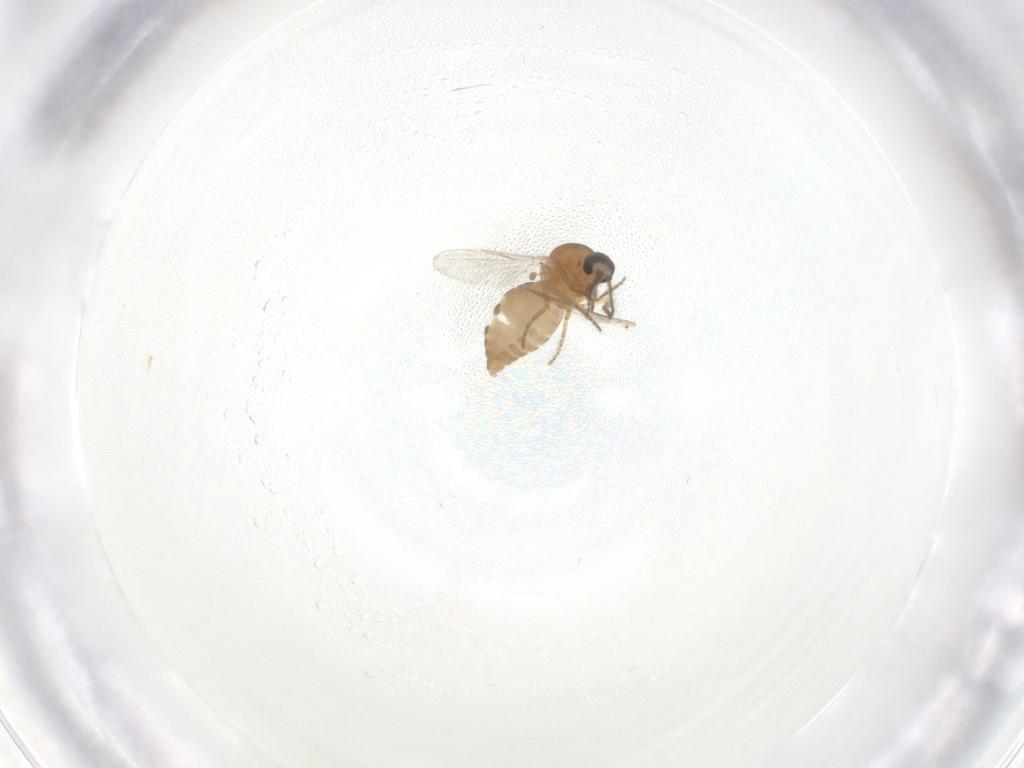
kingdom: Animalia
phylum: Arthropoda
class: Insecta
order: Diptera
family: Ceratopogonidae
